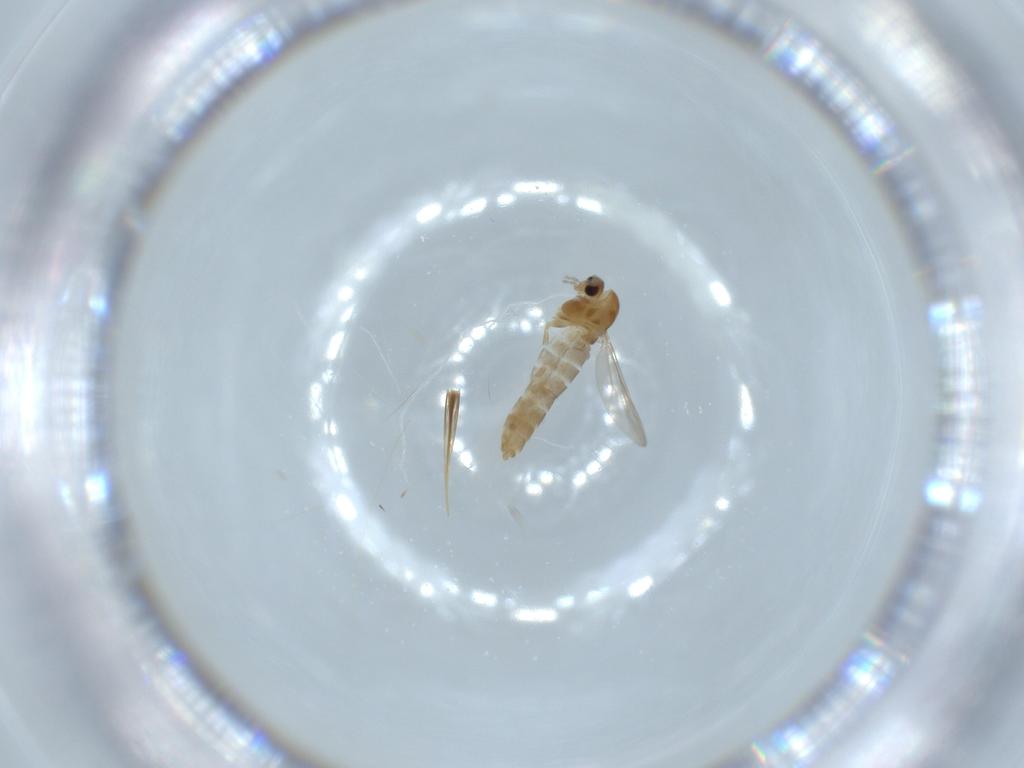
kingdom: Animalia
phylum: Arthropoda
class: Insecta
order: Diptera
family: Chironomidae
